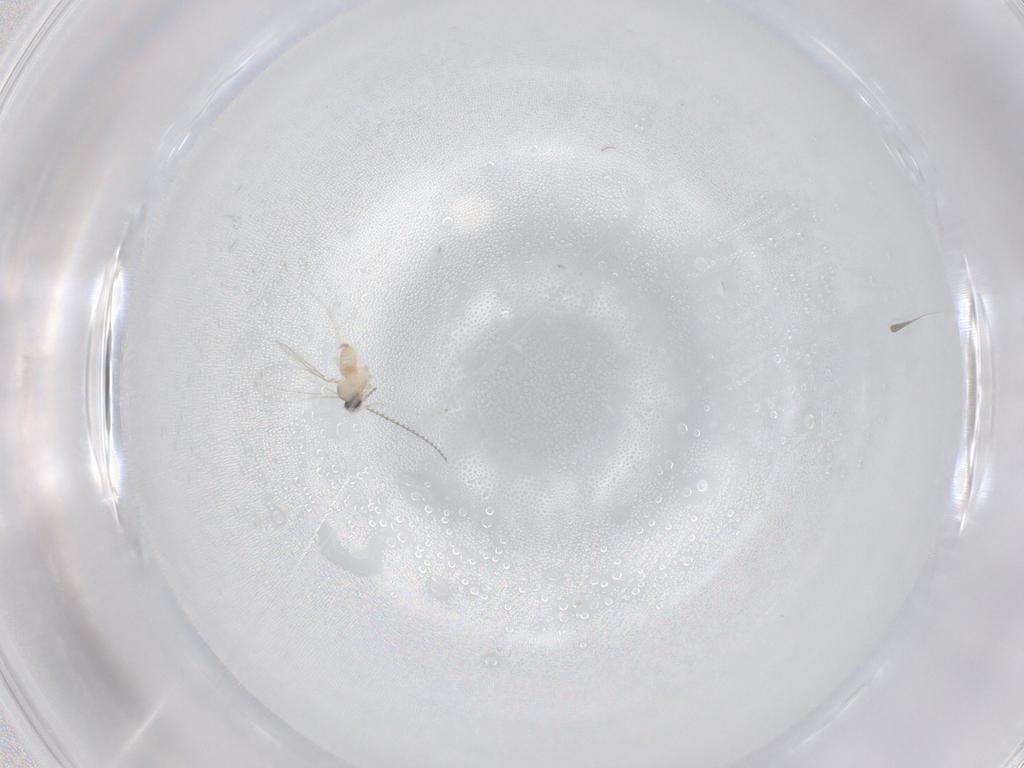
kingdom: Animalia
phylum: Arthropoda
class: Insecta
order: Diptera
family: Cecidomyiidae
